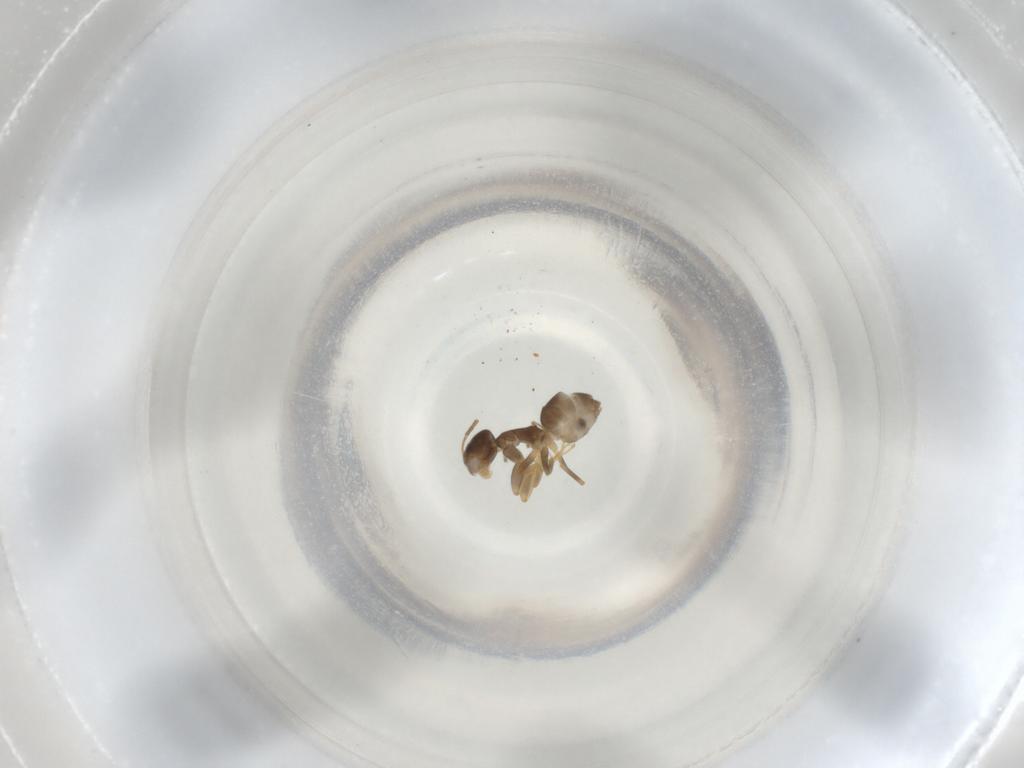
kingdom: Animalia
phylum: Arthropoda
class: Insecta
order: Hymenoptera
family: Formicidae
